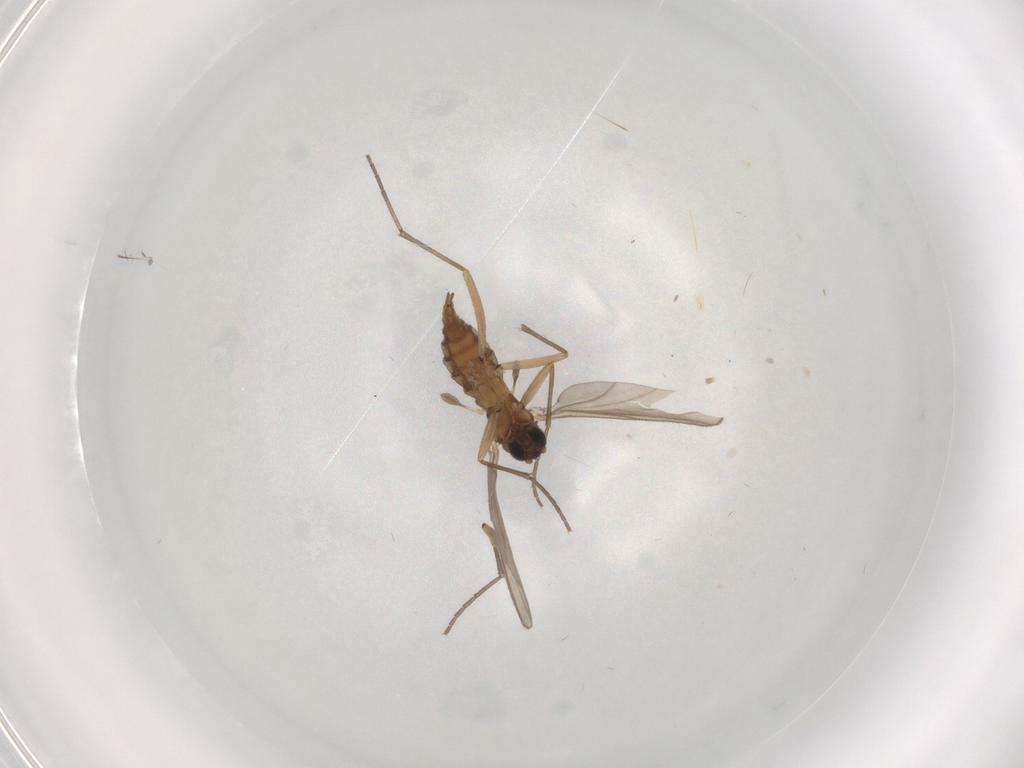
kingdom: Animalia
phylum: Arthropoda
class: Insecta
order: Diptera
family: Sciaridae
